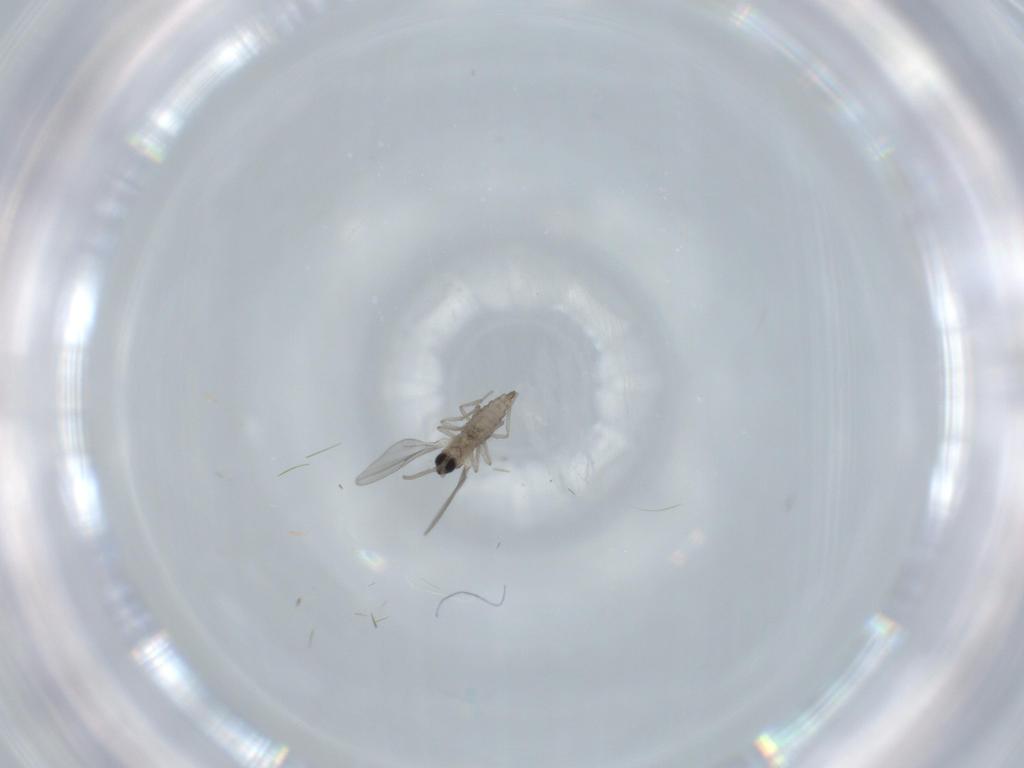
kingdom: Animalia
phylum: Arthropoda
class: Insecta
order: Diptera
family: Cecidomyiidae
